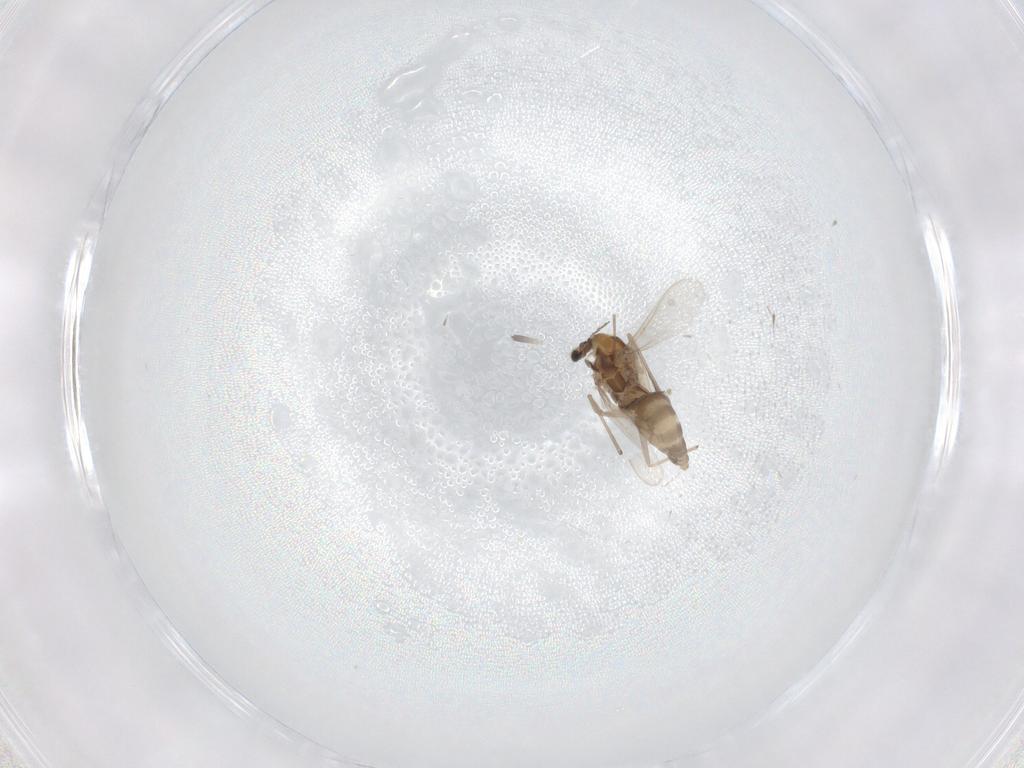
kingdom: Animalia
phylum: Arthropoda
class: Insecta
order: Diptera
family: Chironomidae
